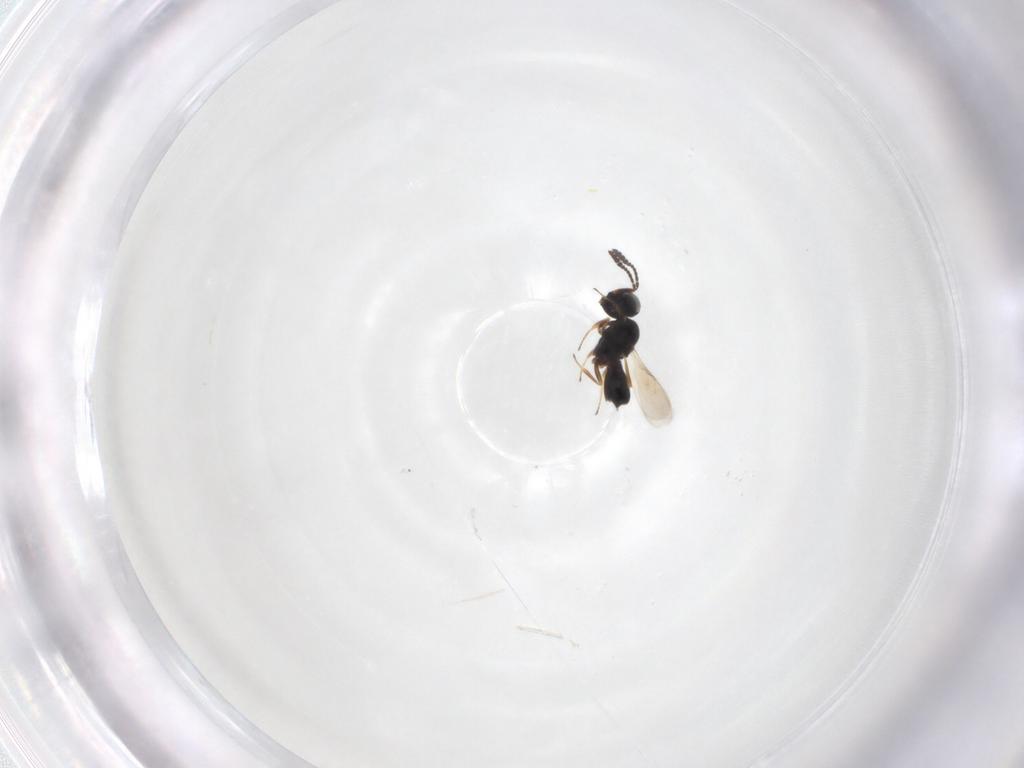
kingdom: Animalia
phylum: Arthropoda
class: Insecta
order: Hymenoptera
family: Scelionidae
